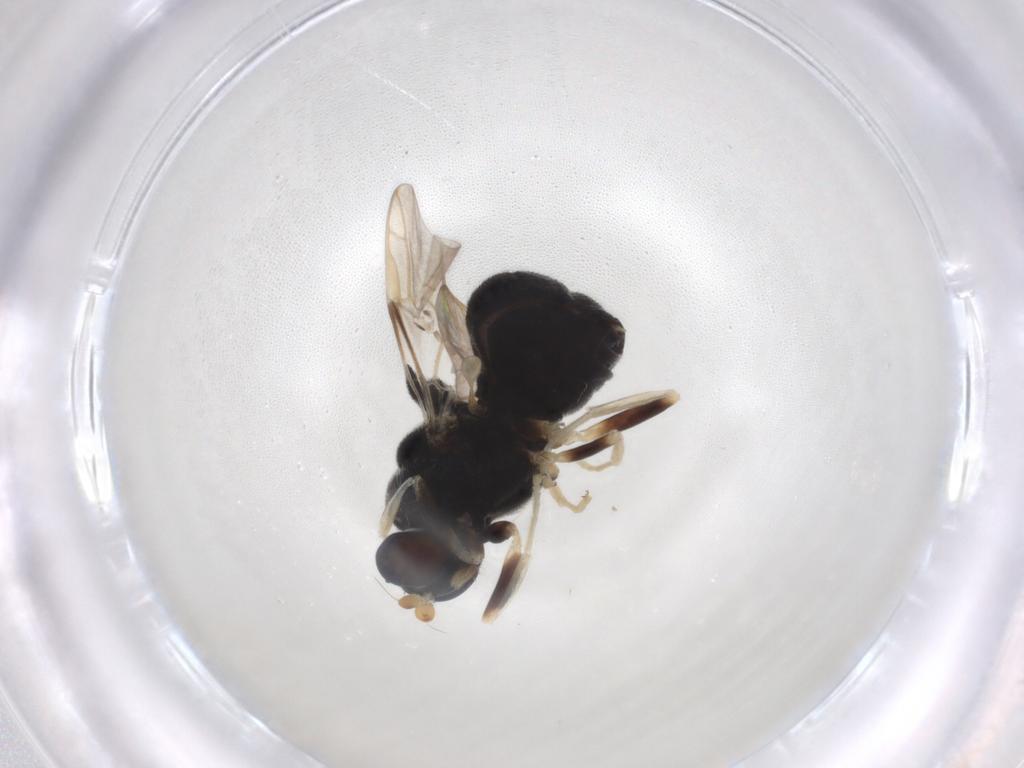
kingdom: Animalia
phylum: Arthropoda
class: Insecta
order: Diptera
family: Stratiomyidae
